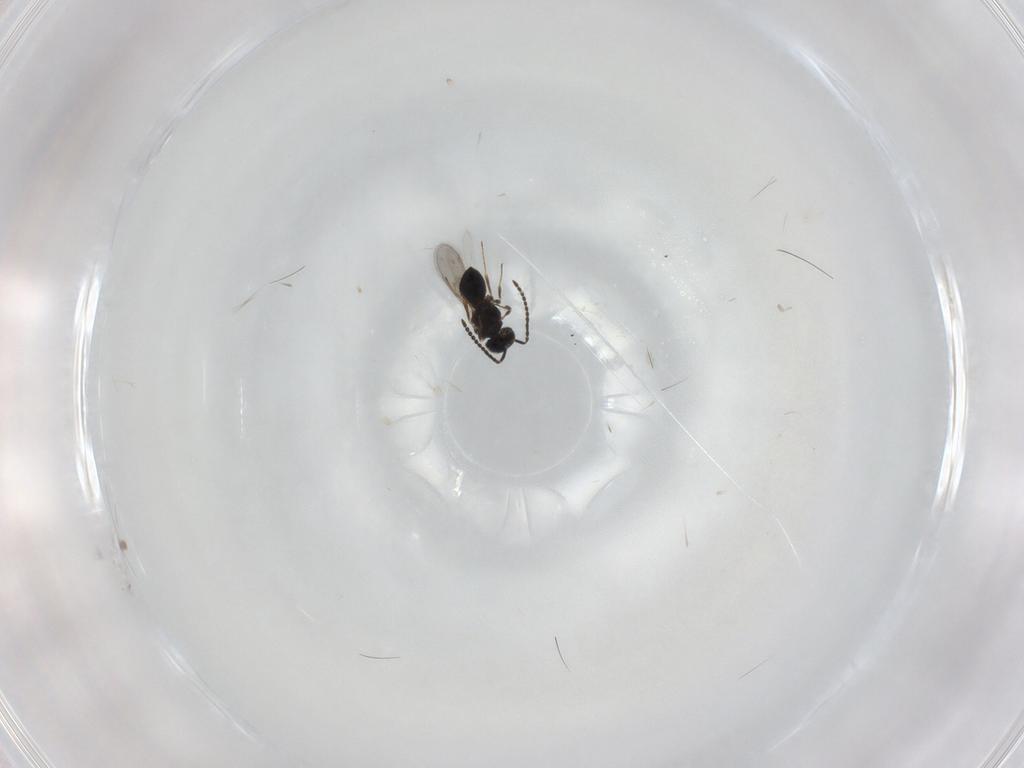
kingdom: Animalia
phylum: Arthropoda
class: Insecta
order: Hymenoptera
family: Scelionidae
